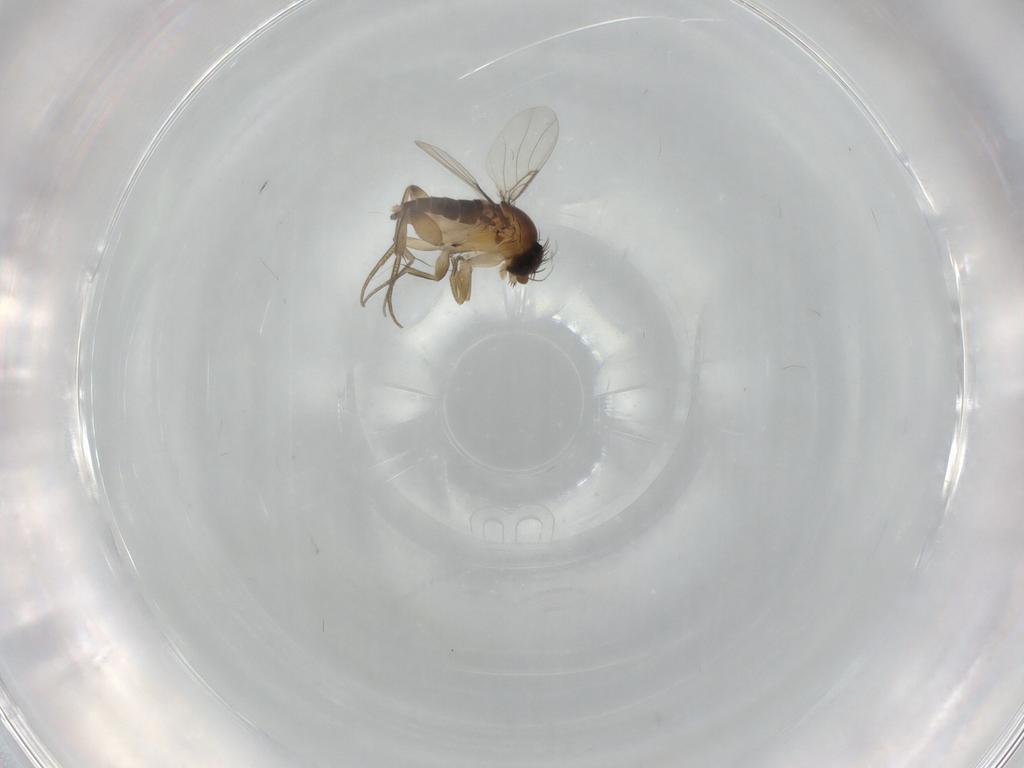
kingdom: Animalia
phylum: Arthropoda
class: Insecta
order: Diptera
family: Phoridae
